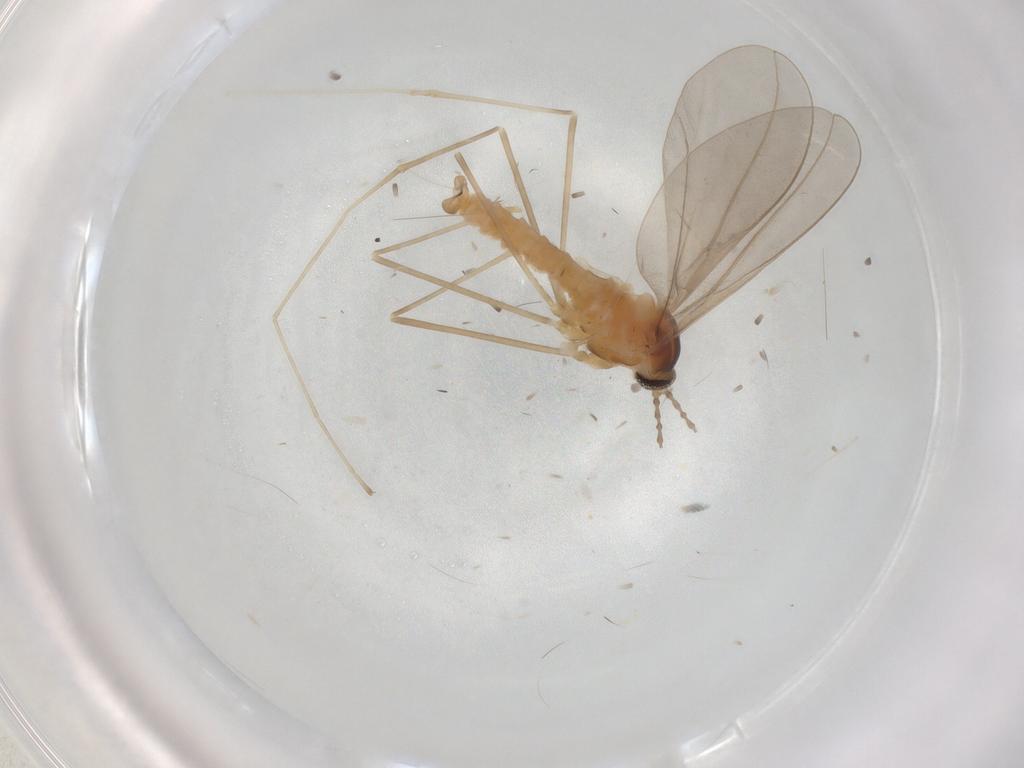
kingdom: Animalia
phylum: Arthropoda
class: Insecta
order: Diptera
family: Cecidomyiidae
